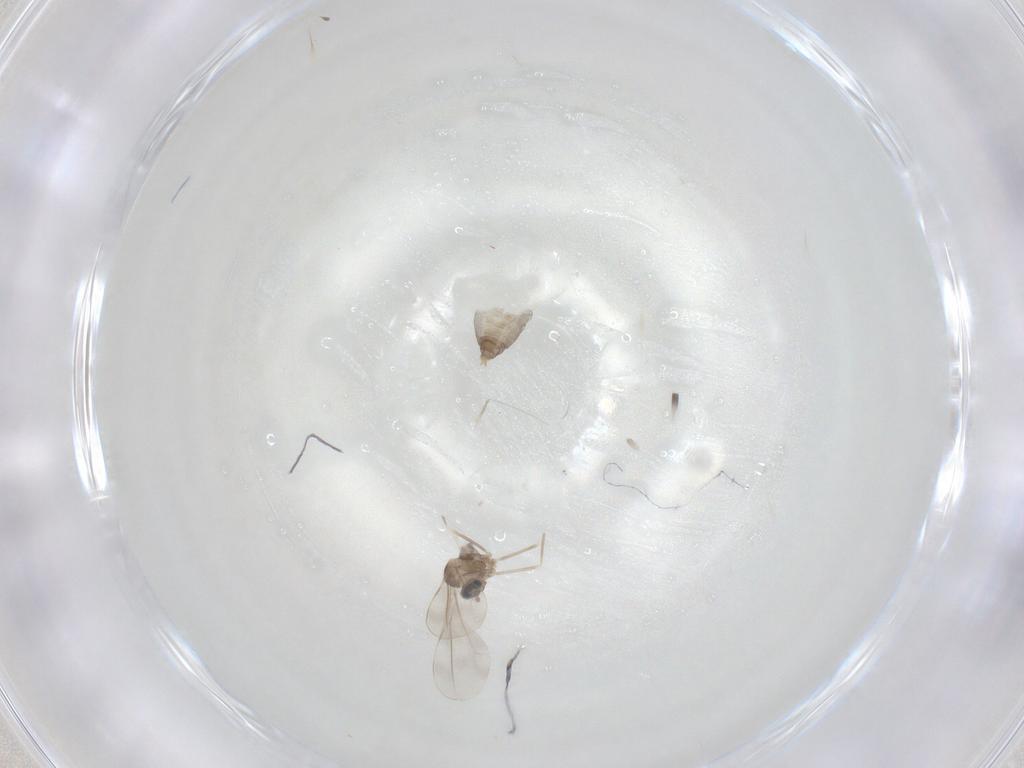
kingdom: Animalia
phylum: Arthropoda
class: Insecta
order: Diptera
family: Cecidomyiidae
